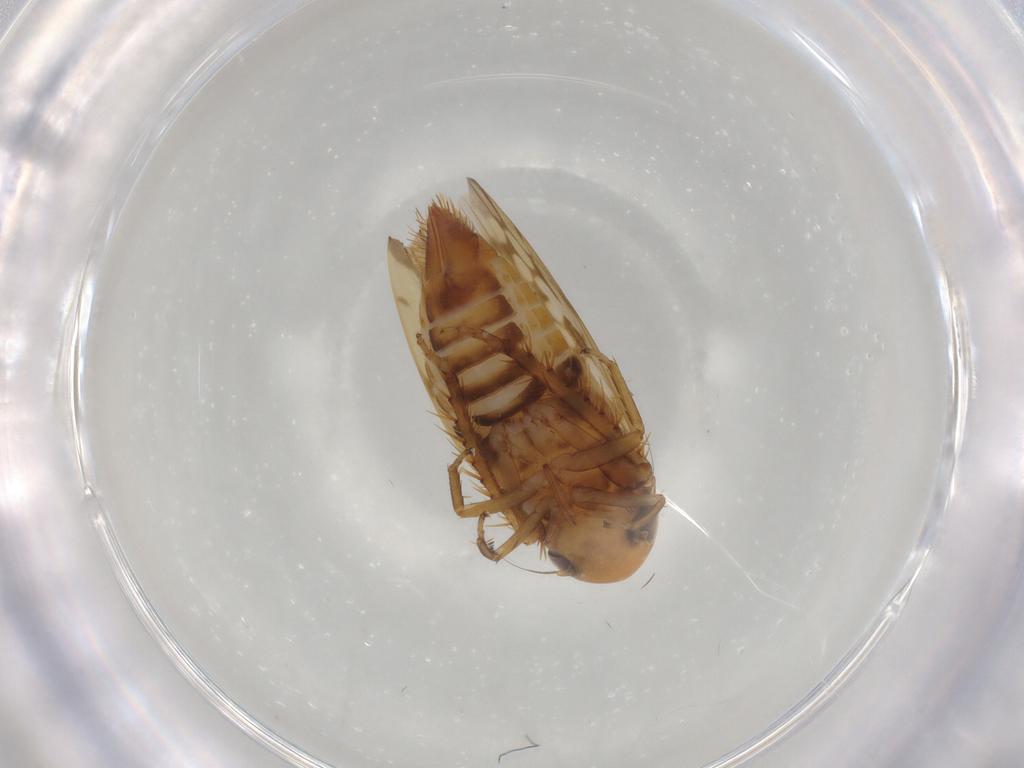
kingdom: Animalia
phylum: Arthropoda
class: Insecta
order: Hemiptera
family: Cicadellidae
